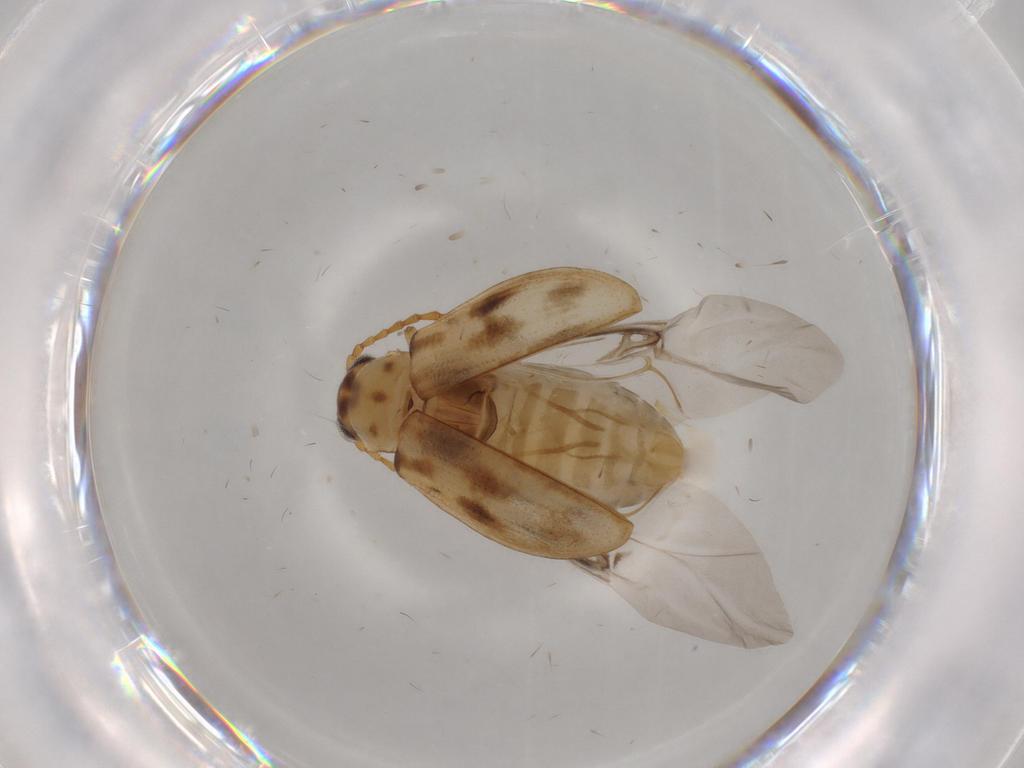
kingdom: Animalia
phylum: Arthropoda
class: Insecta
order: Coleoptera
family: Chrysomelidae
